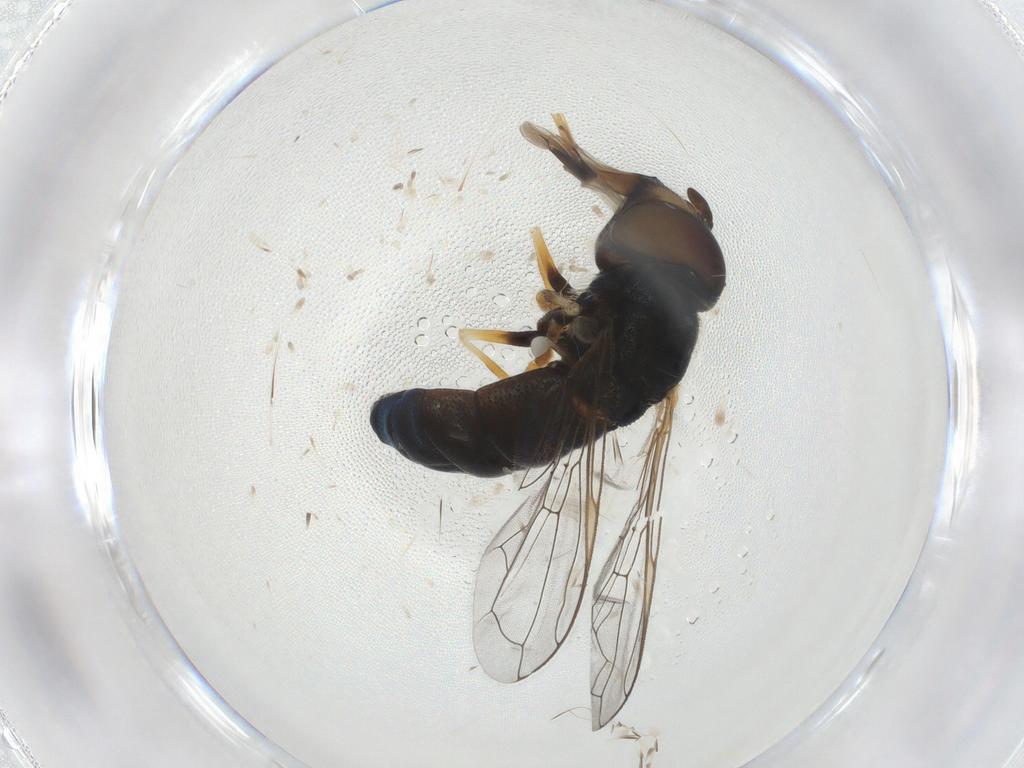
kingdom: Animalia
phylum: Arthropoda
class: Insecta
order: Diptera
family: Syrphidae
